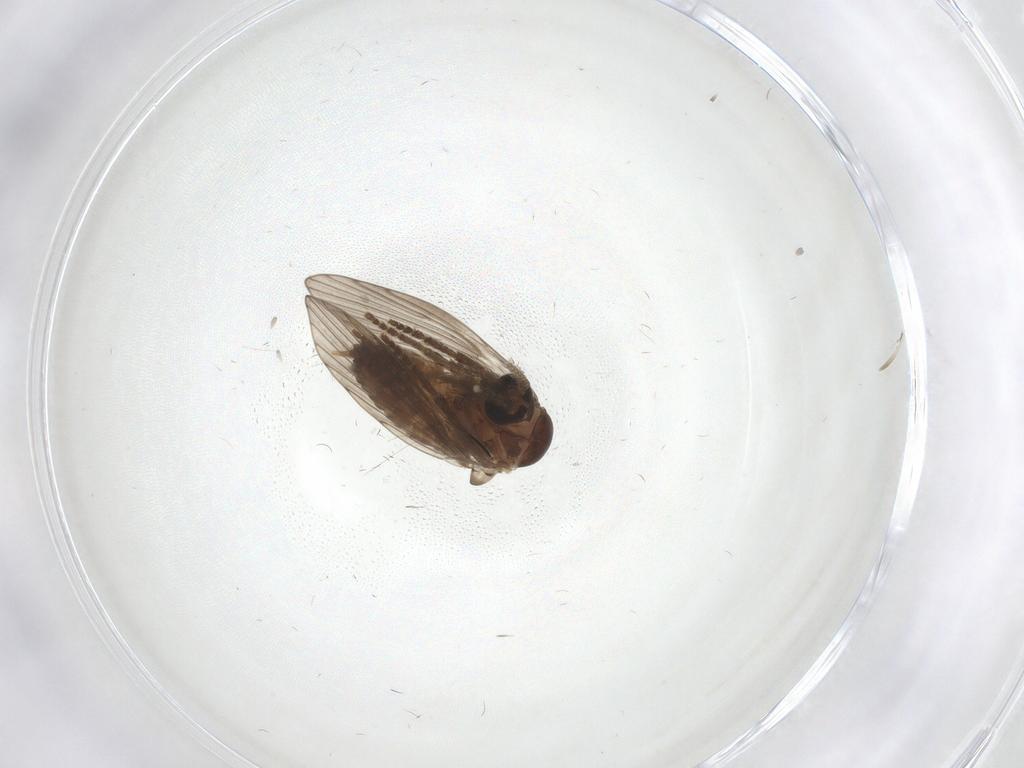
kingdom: Animalia
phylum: Arthropoda
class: Insecta
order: Diptera
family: Psychodidae
